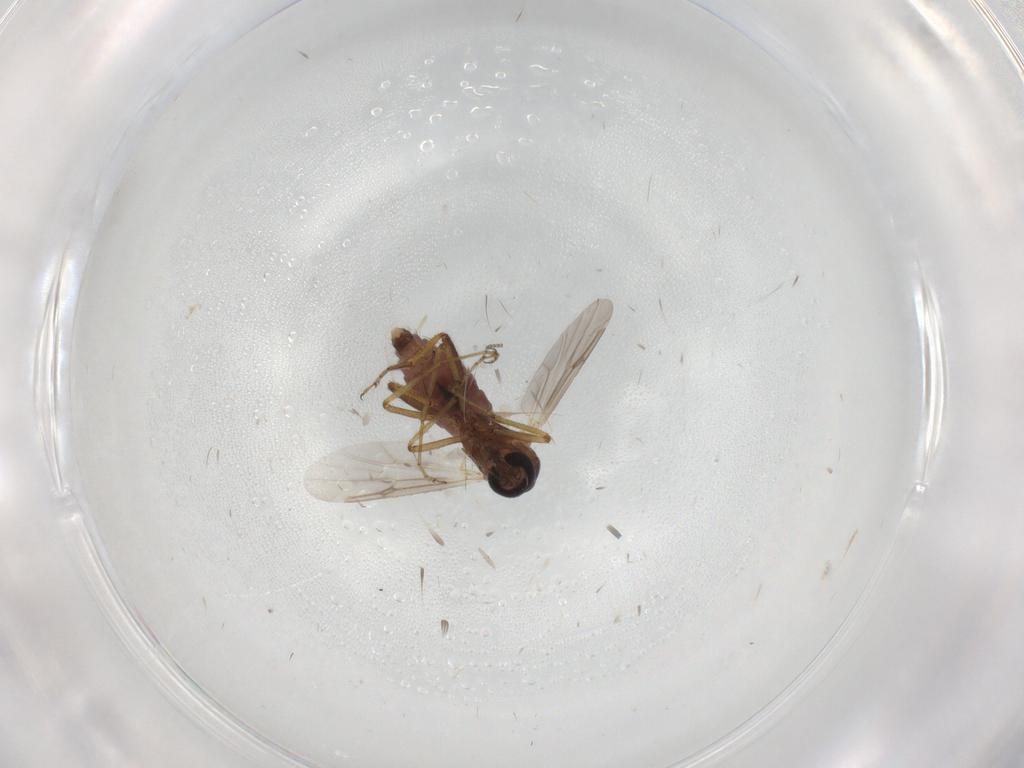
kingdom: Animalia
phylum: Arthropoda
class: Insecta
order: Diptera
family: Ceratopogonidae
